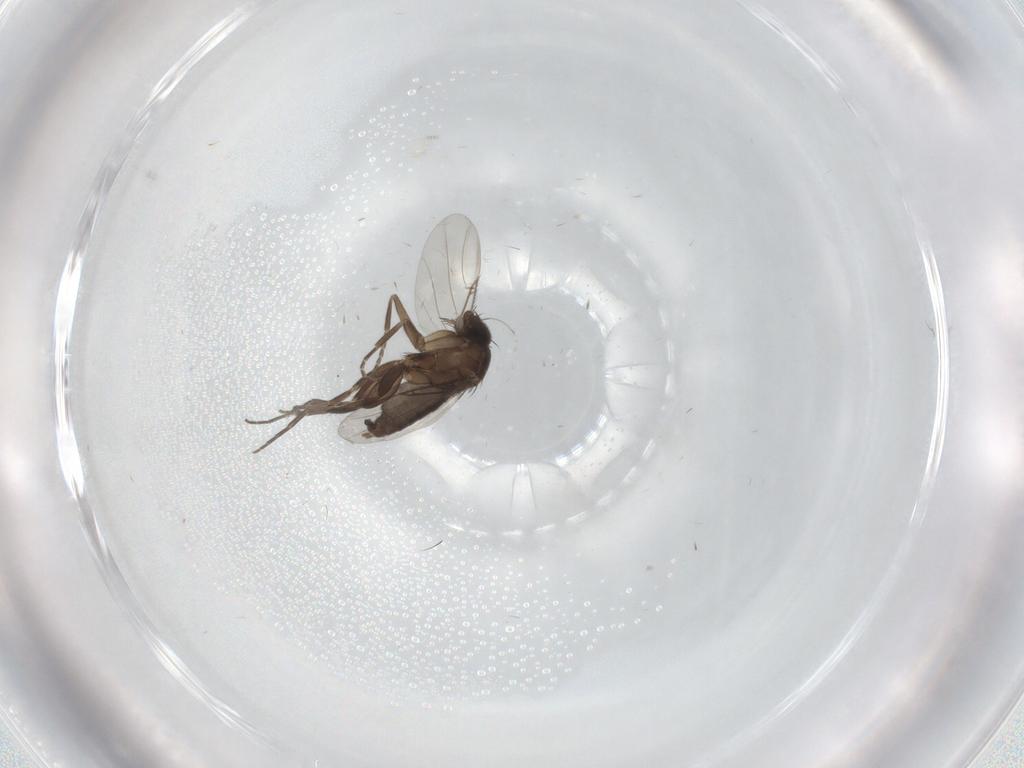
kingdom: Animalia
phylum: Arthropoda
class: Insecta
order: Diptera
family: Phoridae
